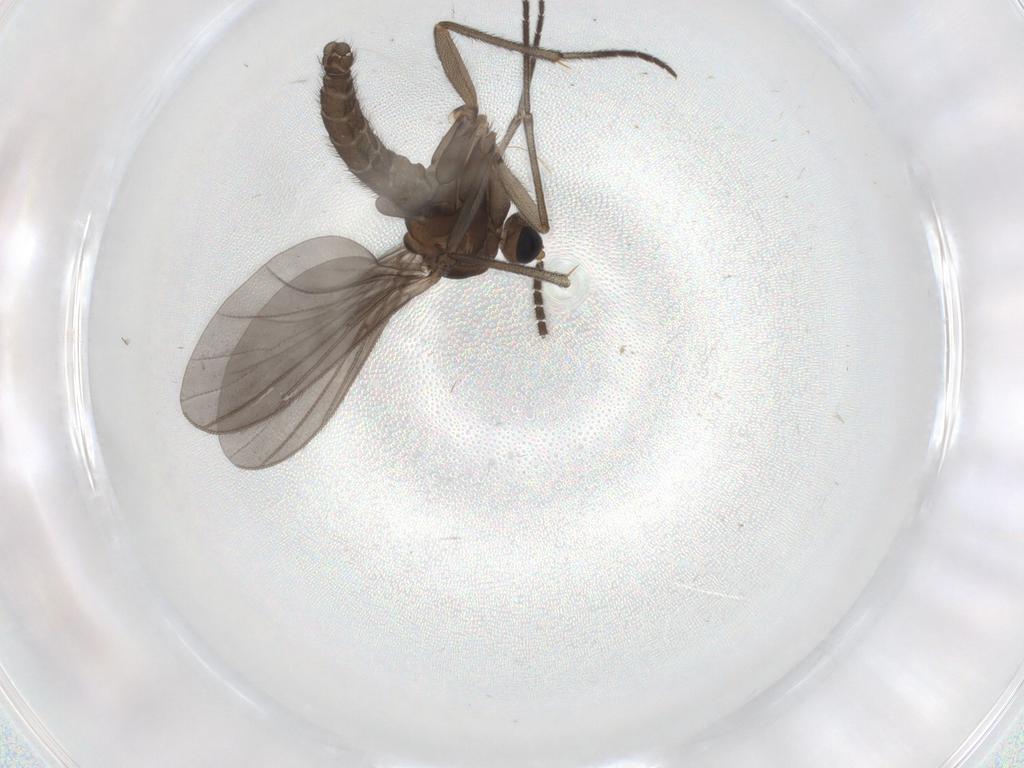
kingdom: Animalia
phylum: Arthropoda
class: Insecta
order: Diptera
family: Sciaridae
